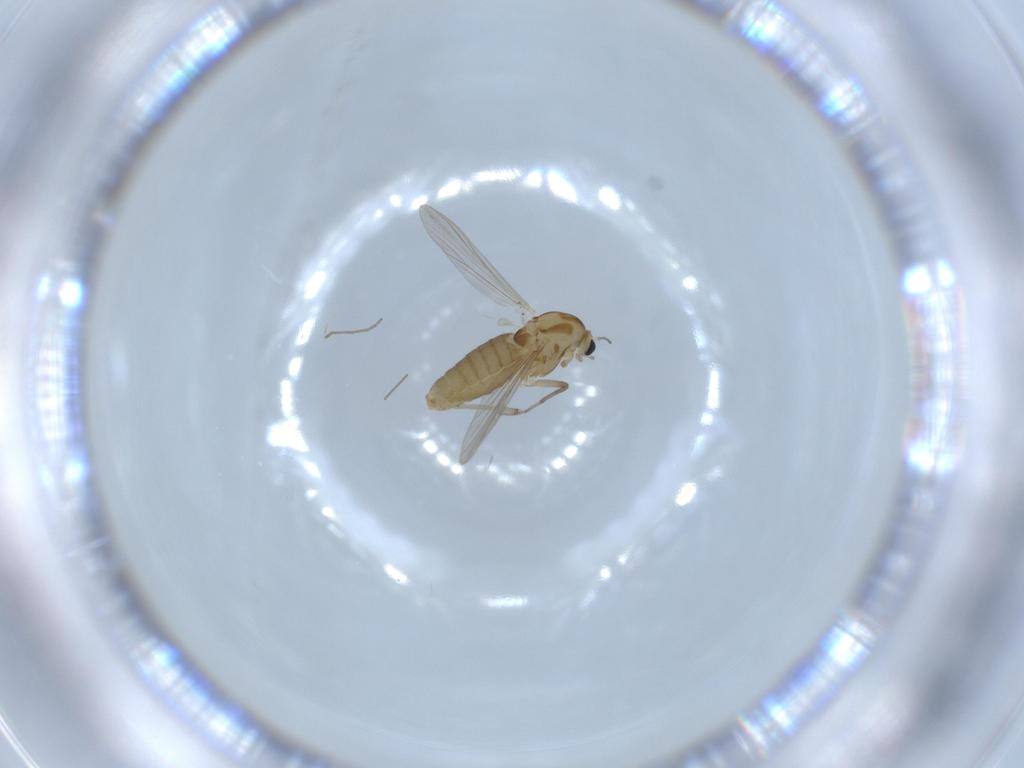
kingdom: Animalia
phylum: Arthropoda
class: Insecta
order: Diptera
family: Chironomidae
